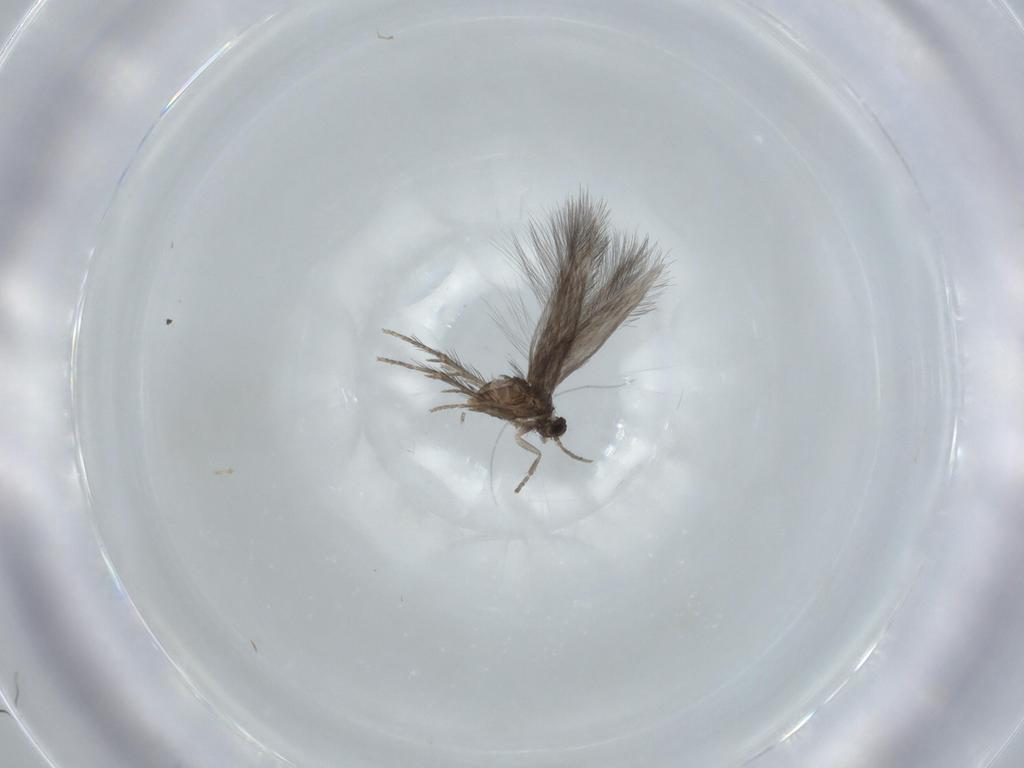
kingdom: Animalia
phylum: Arthropoda
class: Insecta
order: Trichoptera
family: Hydroptilidae
